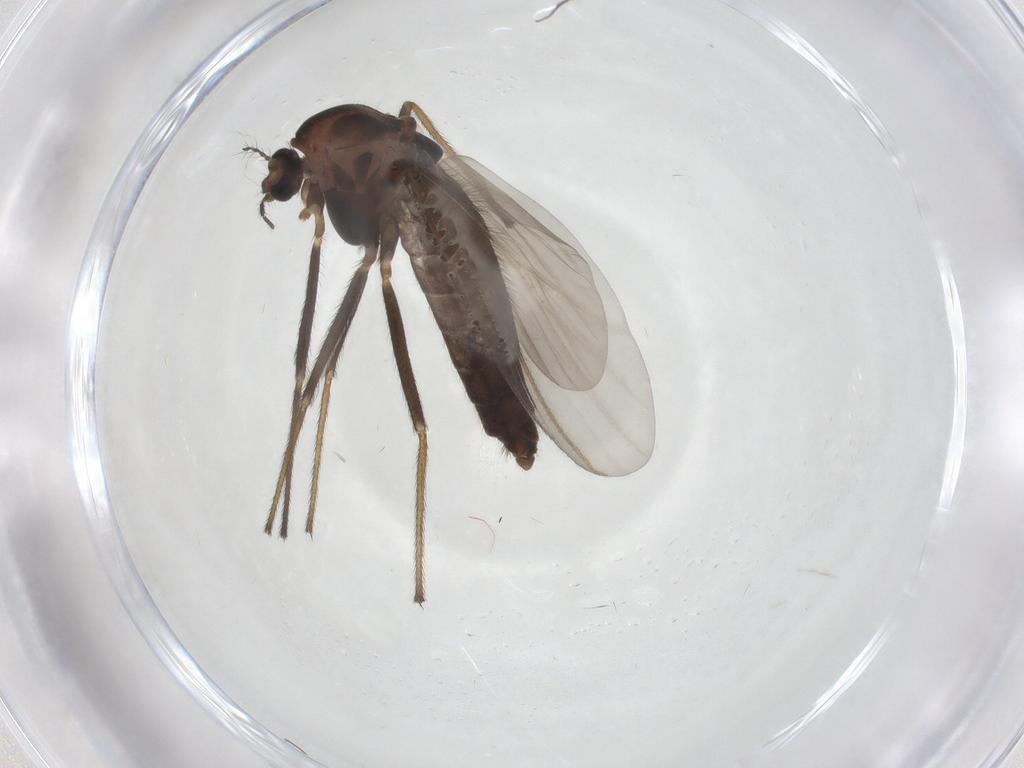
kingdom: Animalia
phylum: Arthropoda
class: Insecta
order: Diptera
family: Chironomidae
